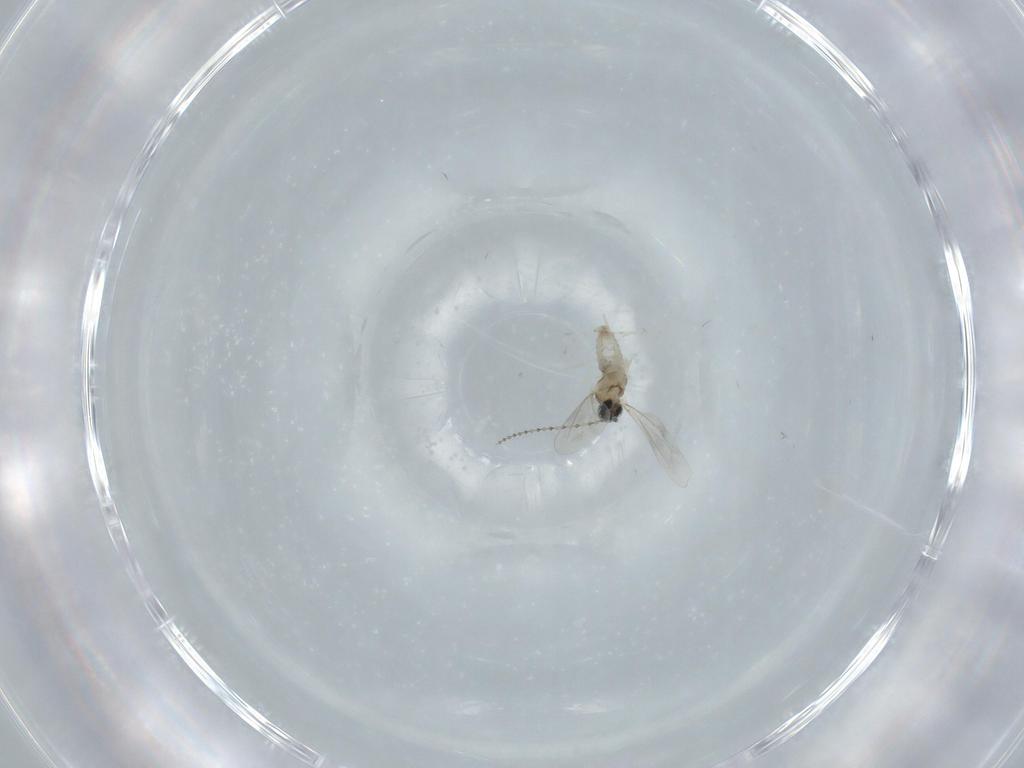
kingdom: Animalia
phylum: Arthropoda
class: Insecta
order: Diptera
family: Cecidomyiidae
